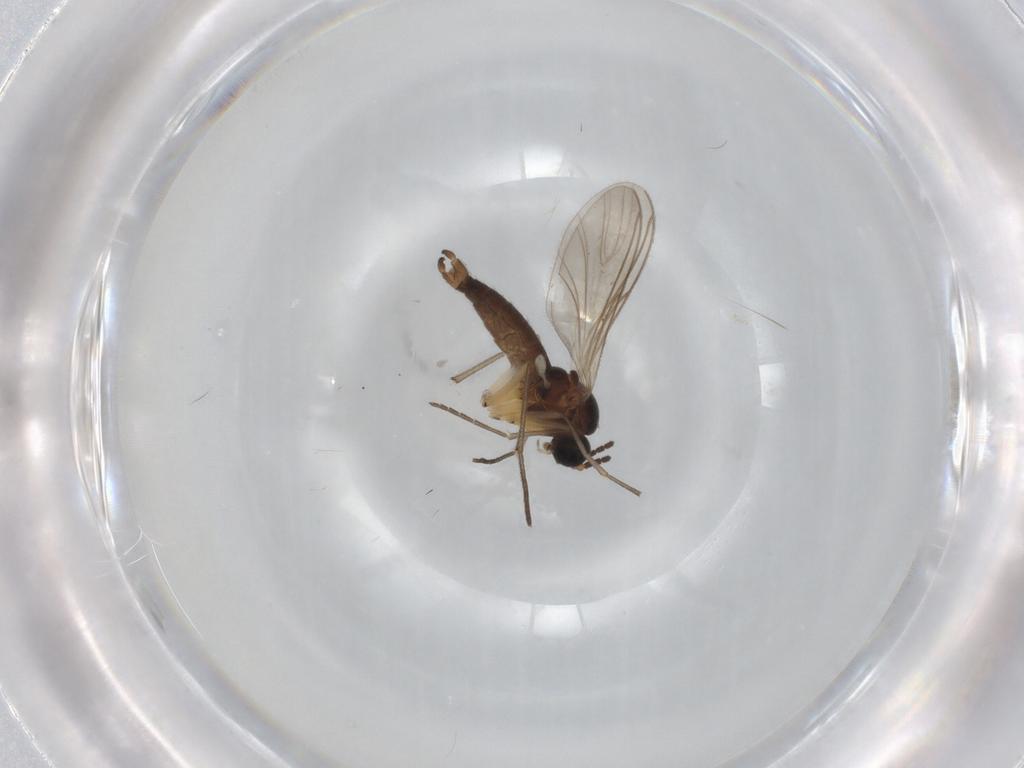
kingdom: Animalia
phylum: Arthropoda
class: Insecta
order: Diptera
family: Sciaridae
